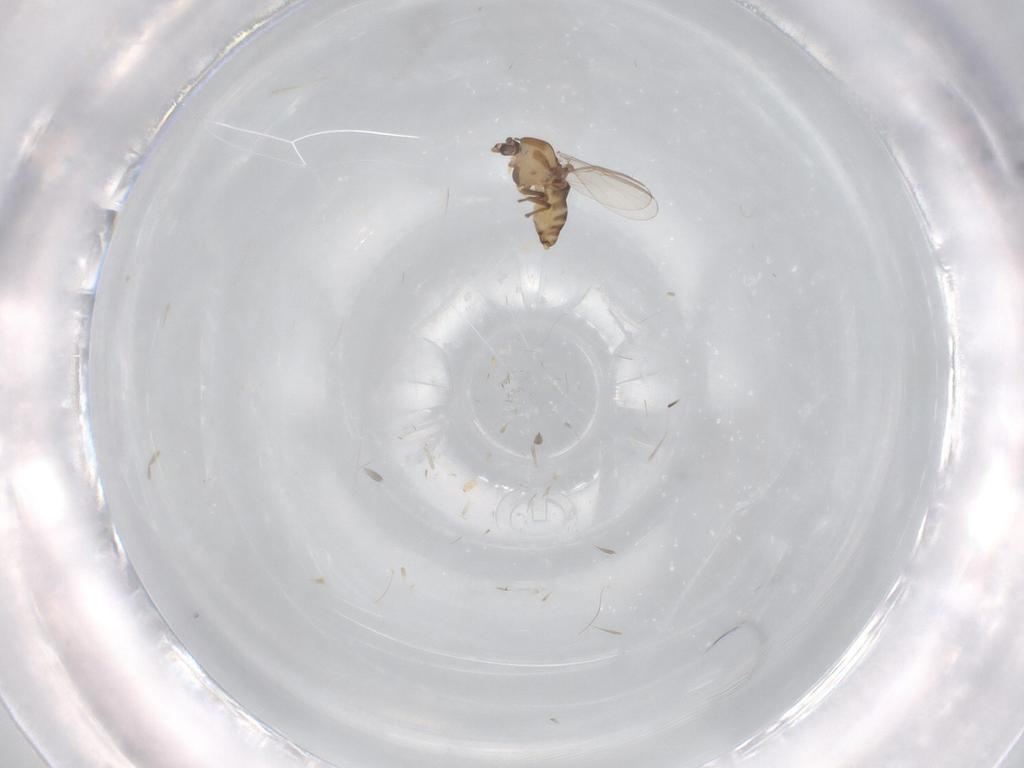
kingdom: Animalia
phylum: Arthropoda
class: Insecta
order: Diptera
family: Chironomidae
